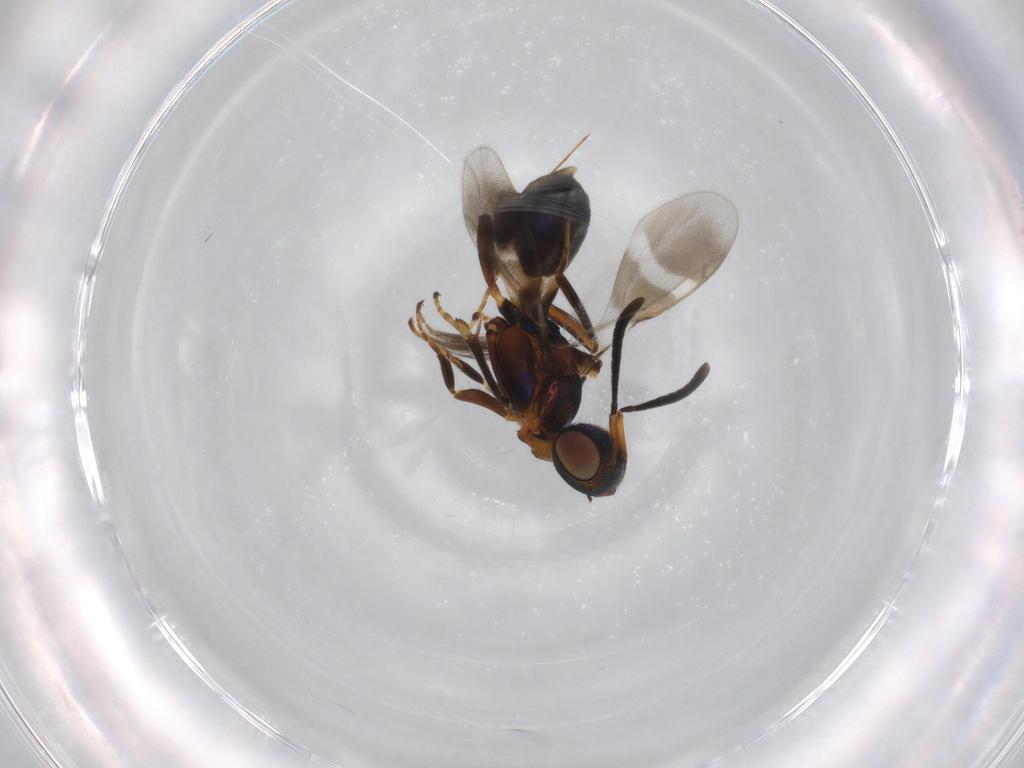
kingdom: Animalia
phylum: Arthropoda
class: Insecta
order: Hymenoptera
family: Eupelmidae
